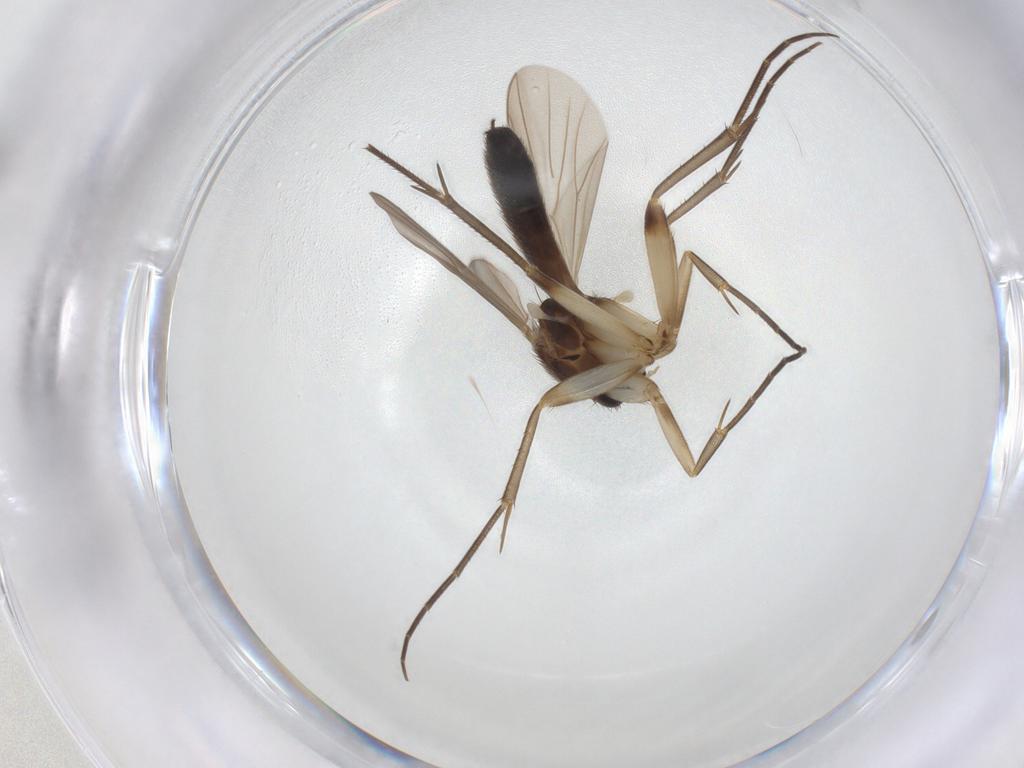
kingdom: Animalia
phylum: Arthropoda
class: Insecta
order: Diptera
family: Mycetophilidae
